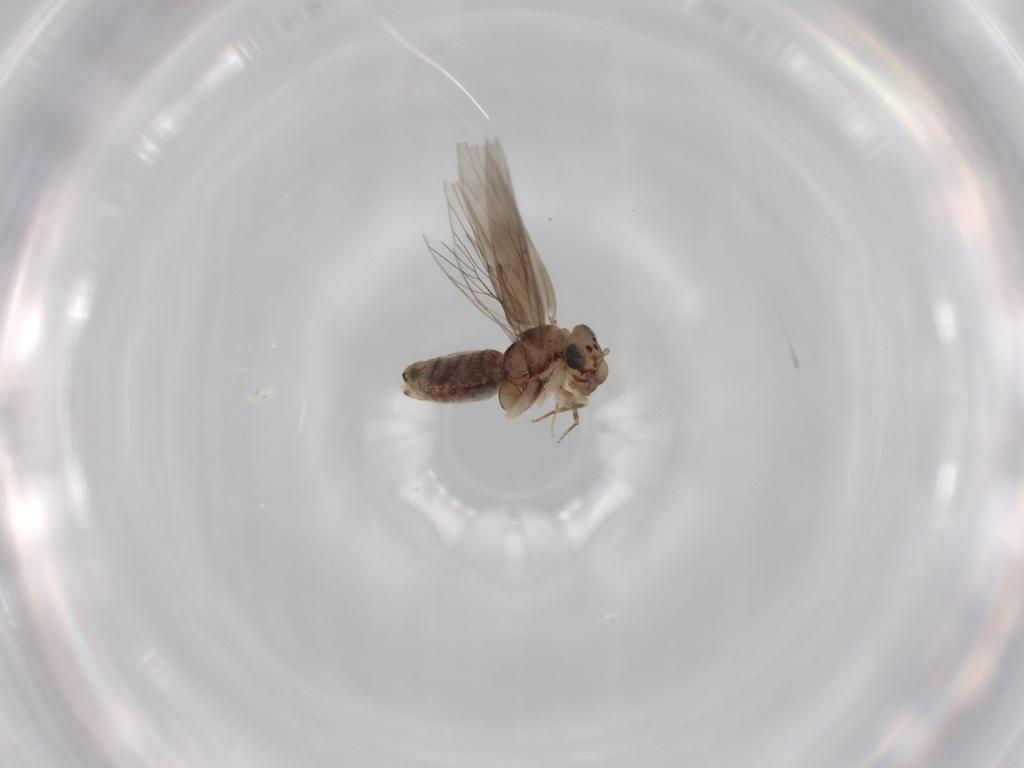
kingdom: Animalia
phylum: Arthropoda
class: Insecta
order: Psocodea
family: Lepidopsocidae
